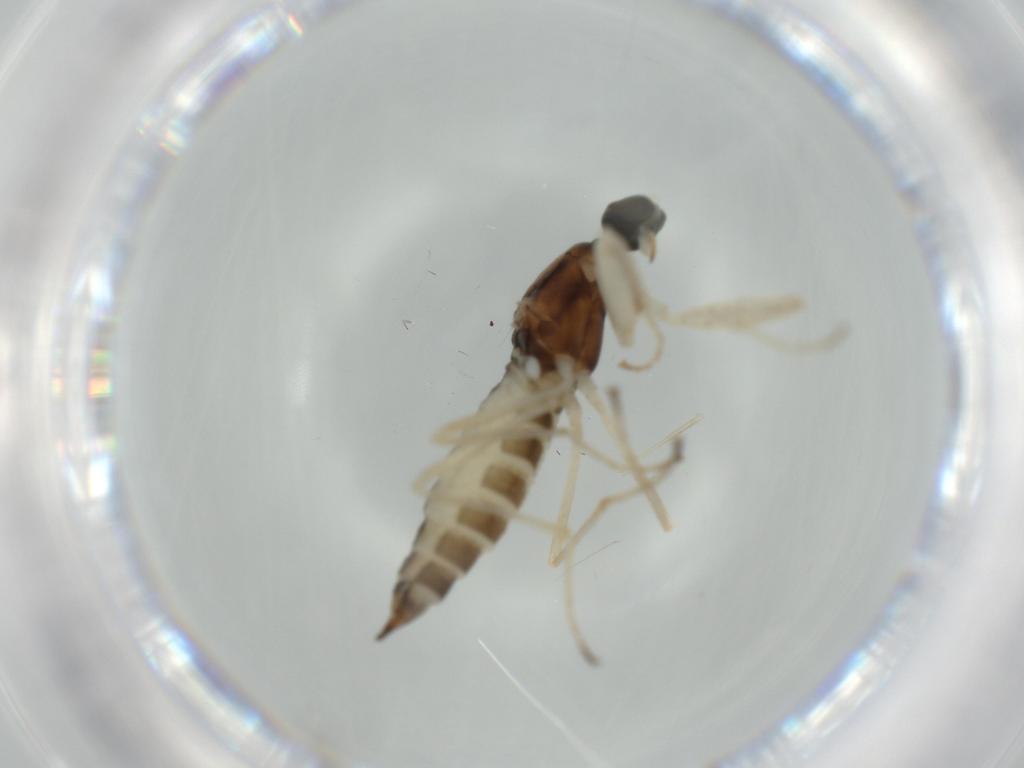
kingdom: Animalia
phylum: Arthropoda
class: Insecta
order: Diptera
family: Empididae
